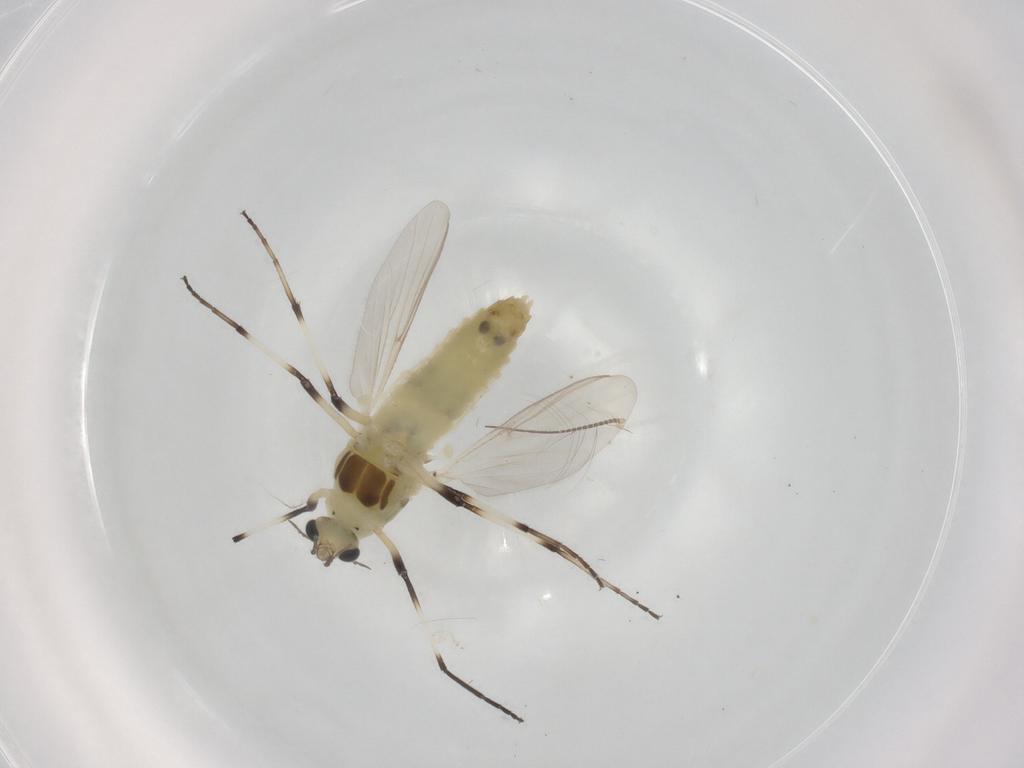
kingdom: Animalia
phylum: Arthropoda
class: Insecta
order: Diptera
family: Chironomidae
